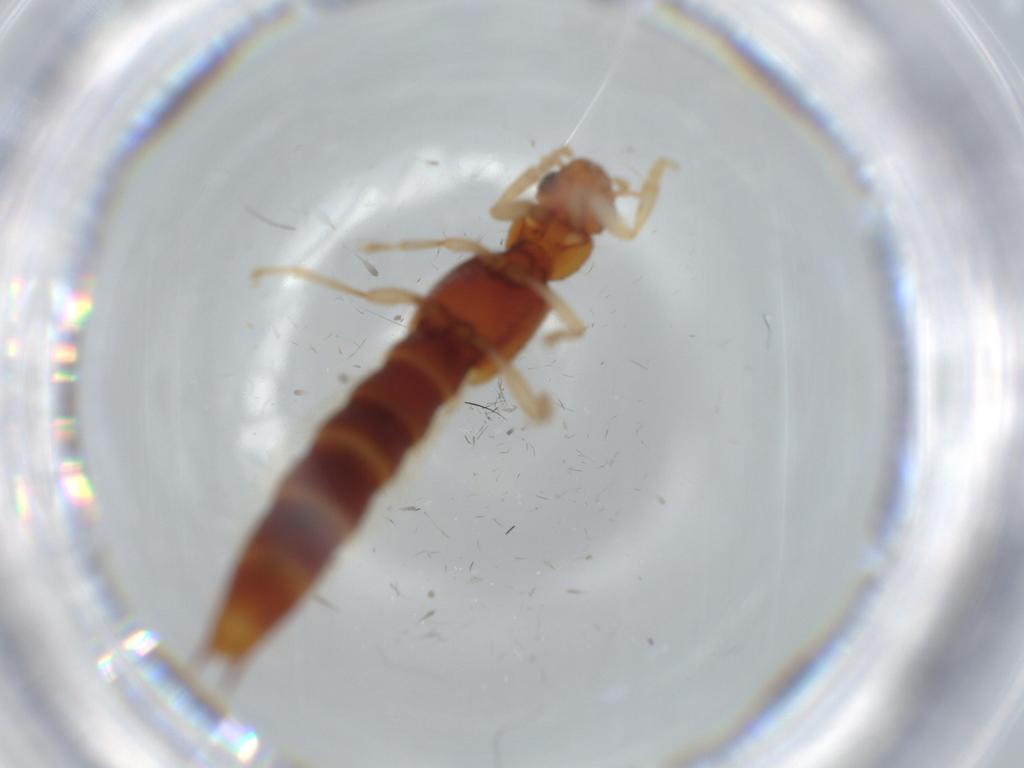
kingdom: Animalia
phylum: Arthropoda
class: Insecta
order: Coleoptera
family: Staphylinidae
